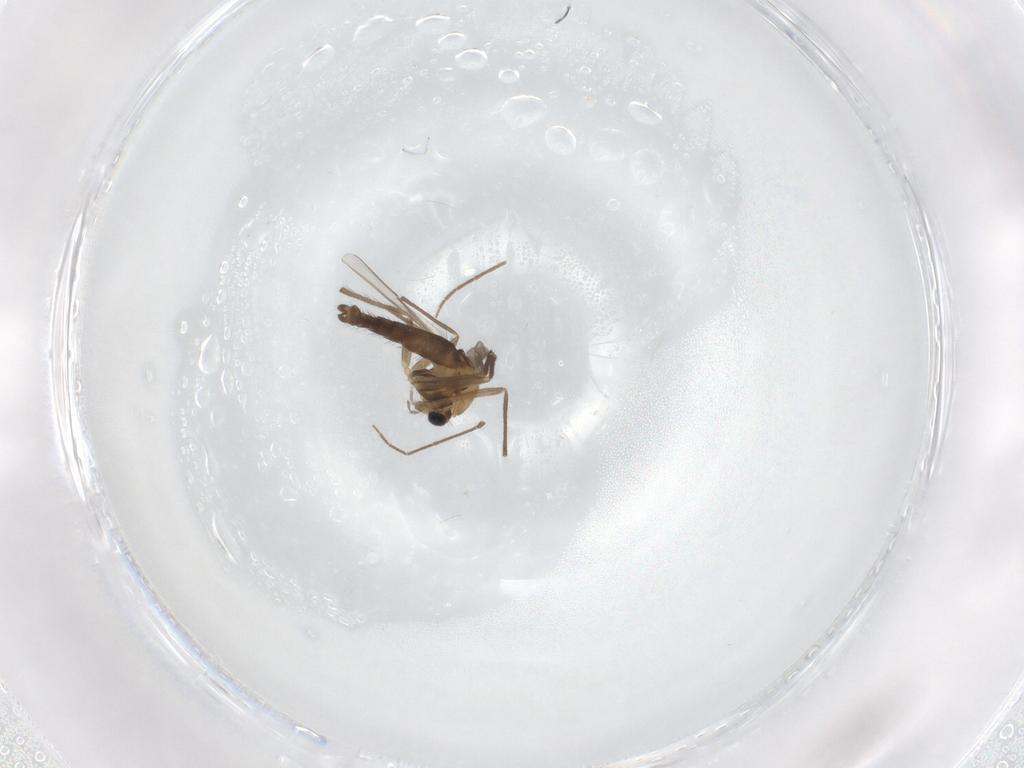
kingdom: Animalia
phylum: Arthropoda
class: Insecta
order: Diptera
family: Chironomidae
